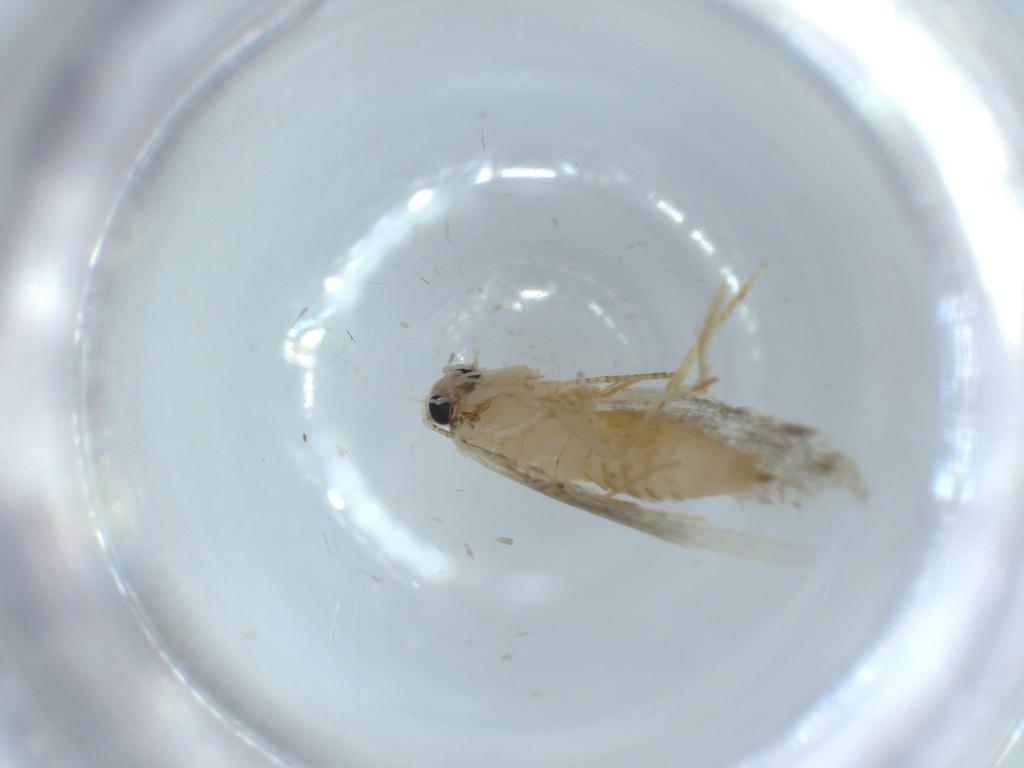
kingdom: Animalia
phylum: Arthropoda
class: Insecta
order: Lepidoptera
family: Tineidae
